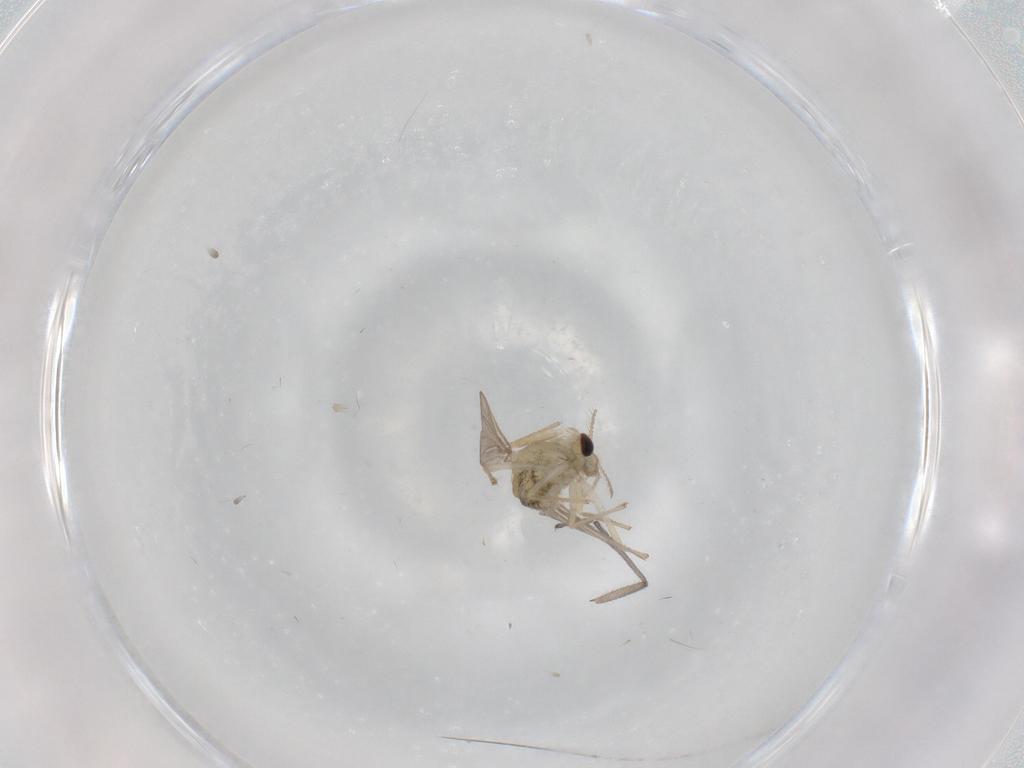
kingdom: Animalia
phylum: Arthropoda
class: Insecta
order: Diptera
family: Chironomidae
